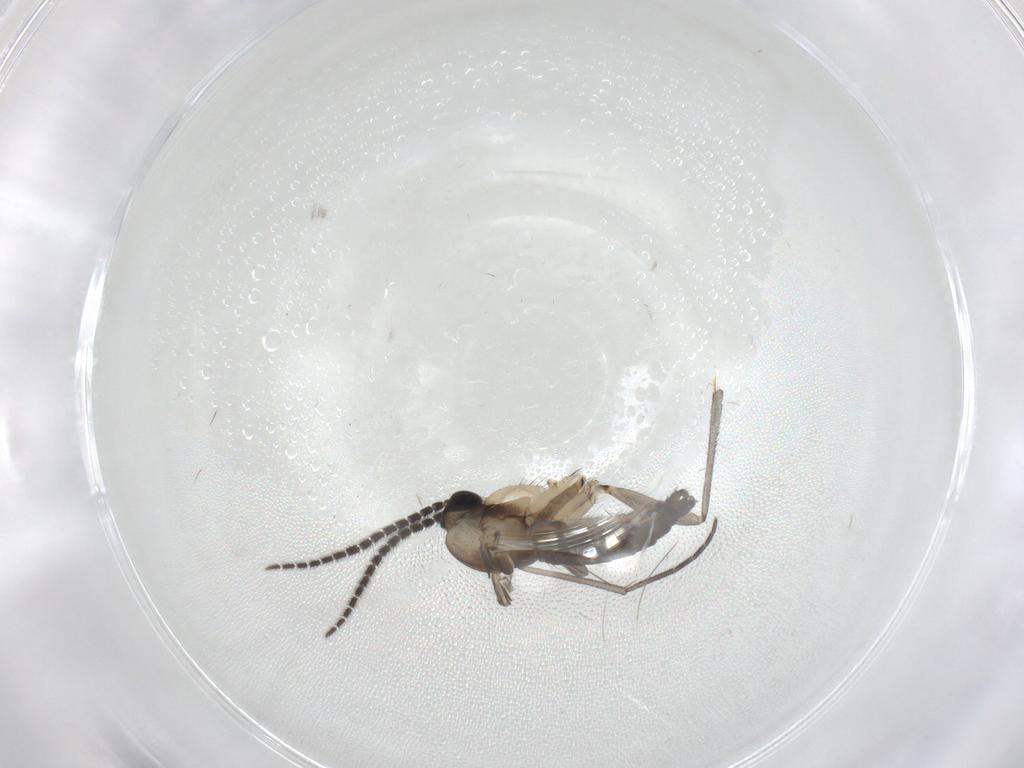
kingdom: Animalia
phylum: Arthropoda
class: Insecta
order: Diptera
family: Sciaridae
